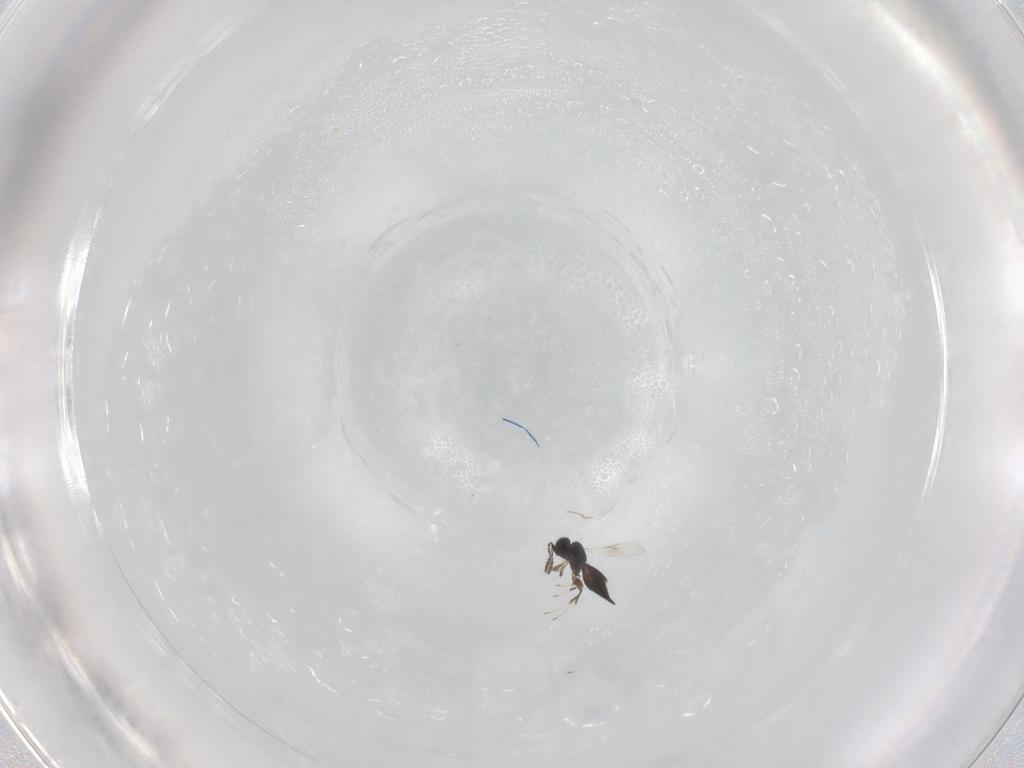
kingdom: Animalia
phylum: Arthropoda
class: Insecta
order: Hymenoptera
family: Scelionidae
